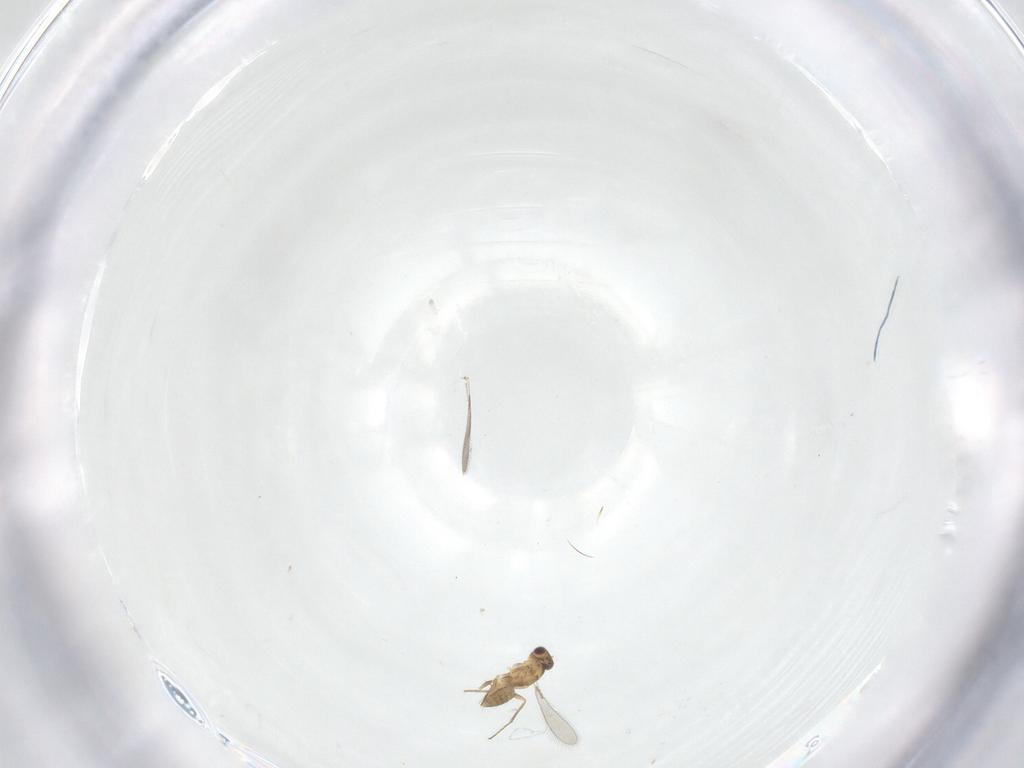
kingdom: Animalia
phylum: Arthropoda
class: Insecta
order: Hymenoptera
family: Mymaridae
